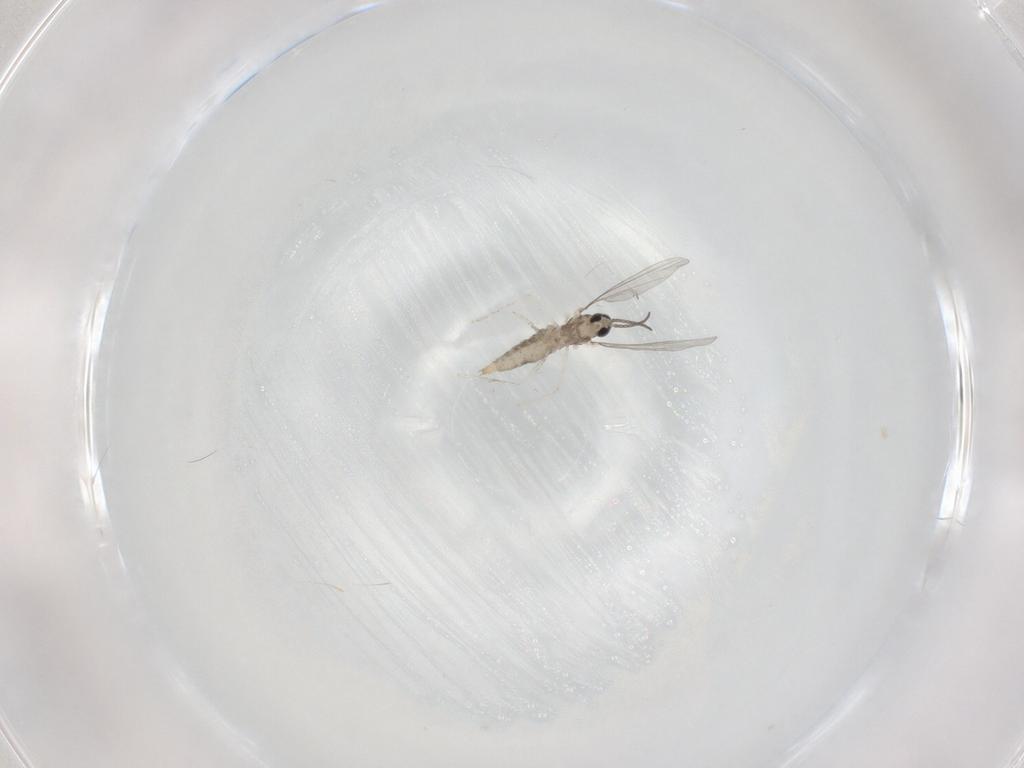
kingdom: Animalia
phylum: Arthropoda
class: Insecta
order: Diptera
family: Cecidomyiidae
